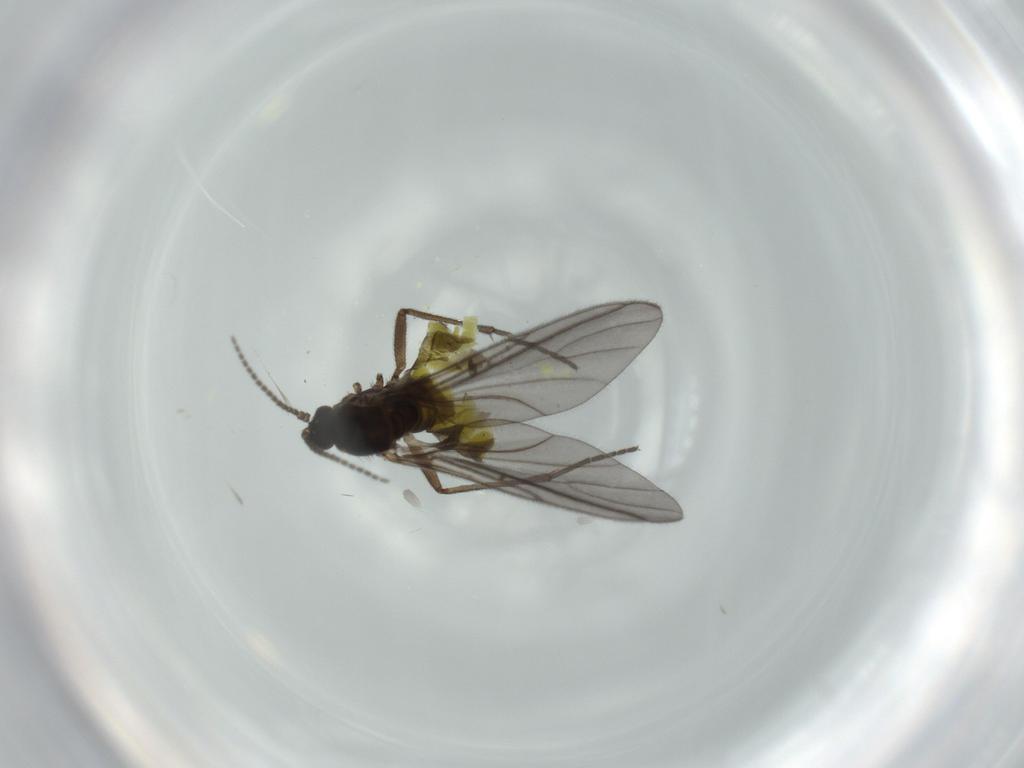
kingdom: Animalia
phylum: Arthropoda
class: Insecta
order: Diptera
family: Sciaridae
